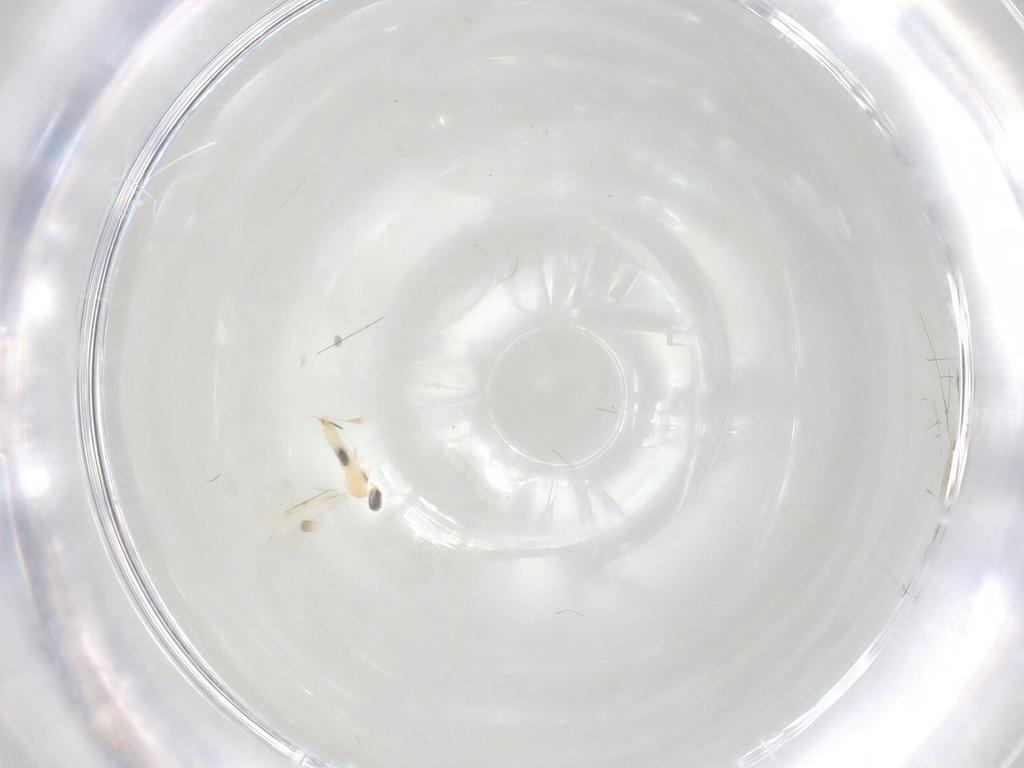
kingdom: Animalia
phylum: Arthropoda
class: Insecta
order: Diptera
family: Cecidomyiidae
